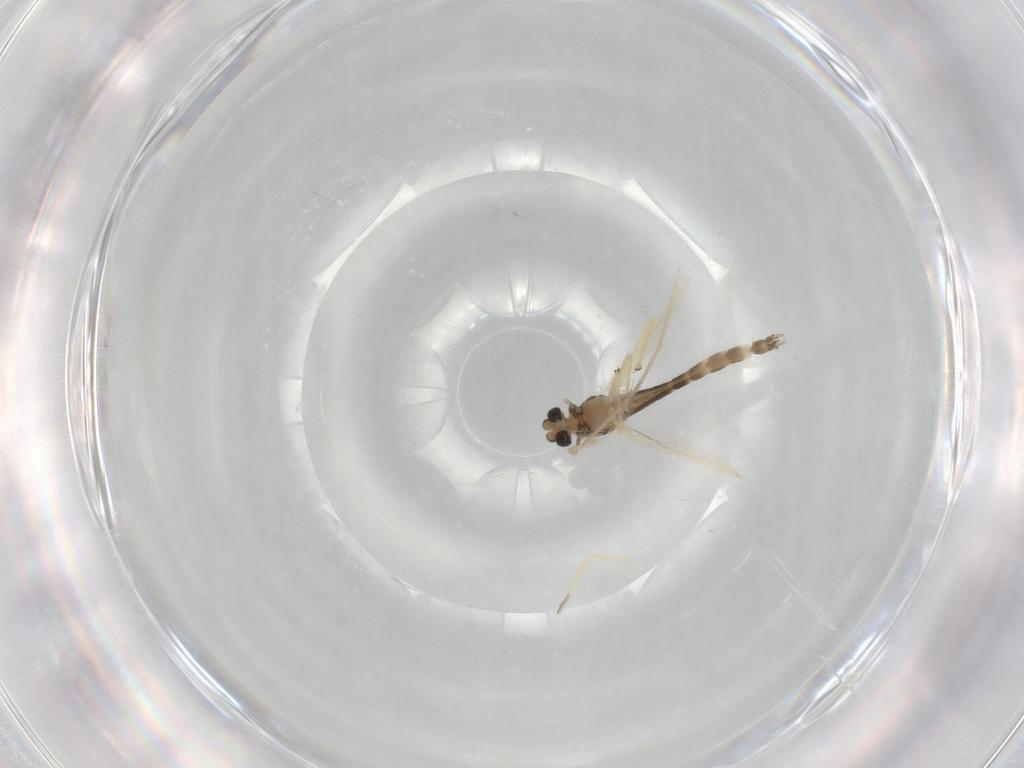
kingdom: Animalia
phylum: Arthropoda
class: Insecta
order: Diptera
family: Chironomidae
